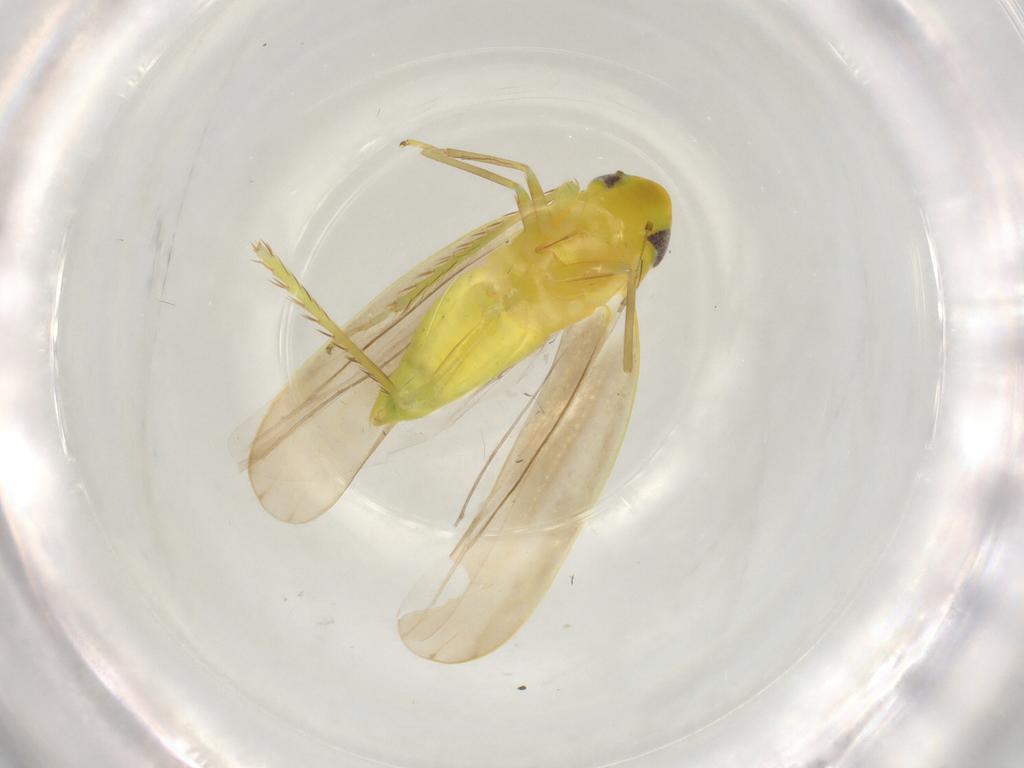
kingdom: Animalia
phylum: Arthropoda
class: Insecta
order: Hemiptera
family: Cicadellidae
